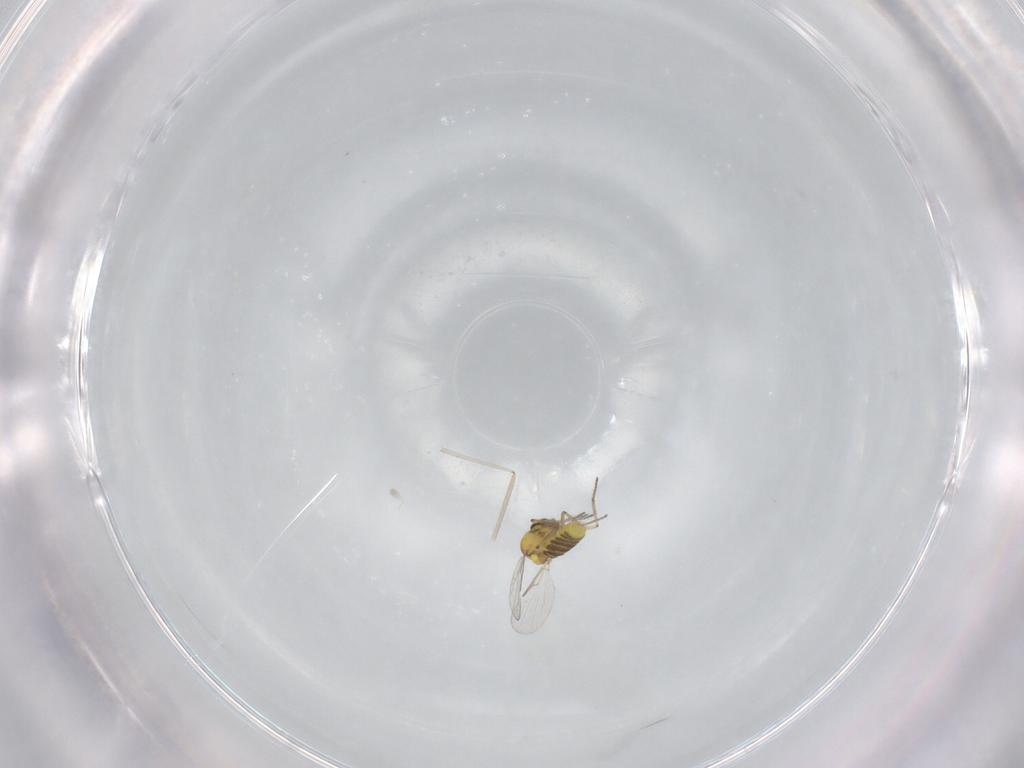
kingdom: Animalia
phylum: Arthropoda
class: Insecta
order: Diptera
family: Ceratopogonidae
